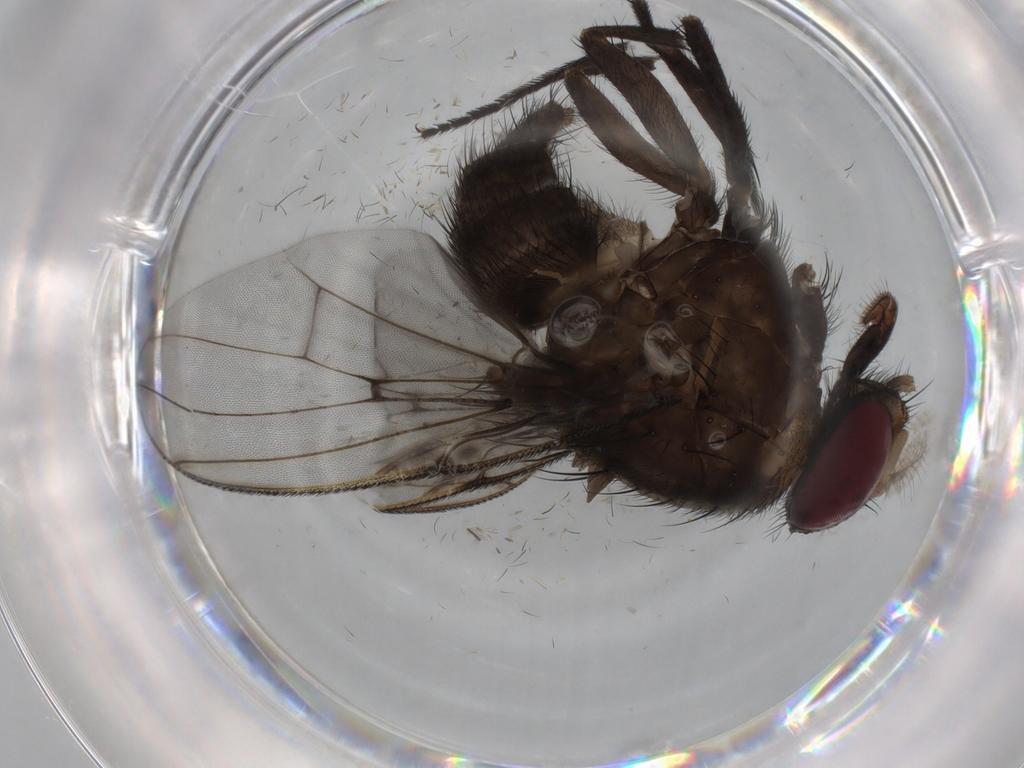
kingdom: Animalia
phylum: Arthropoda
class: Insecta
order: Diptera
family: Muscidae
